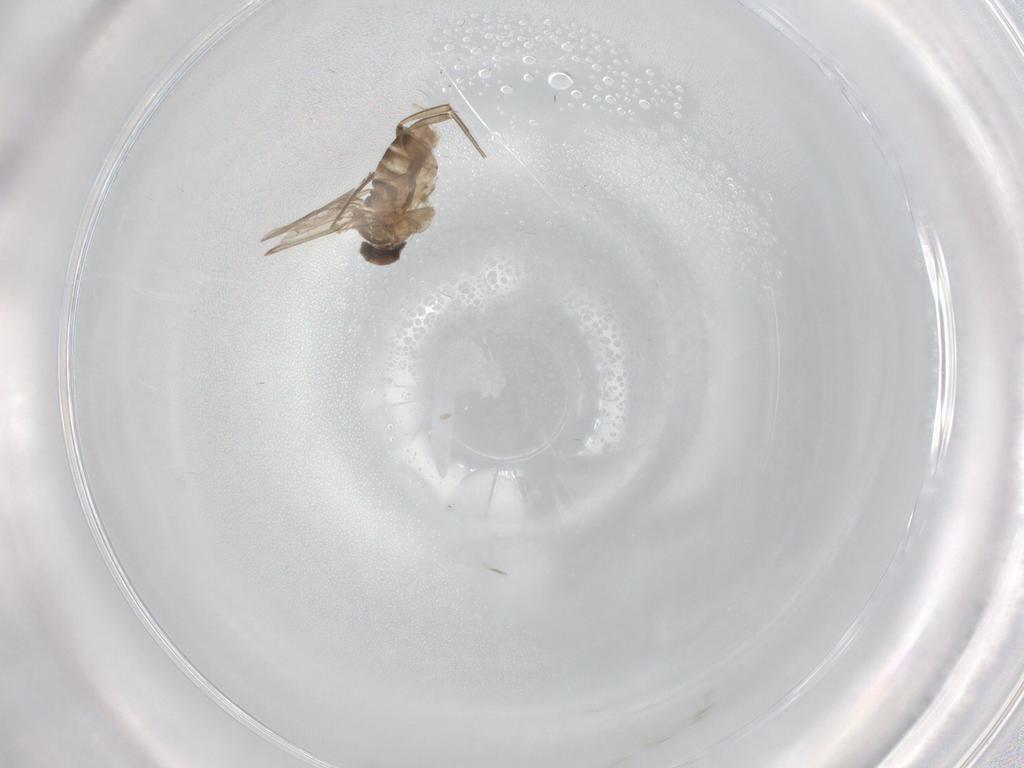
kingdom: Animalia
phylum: Arthropoda
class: Insecta
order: Diptera
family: Phoridae
